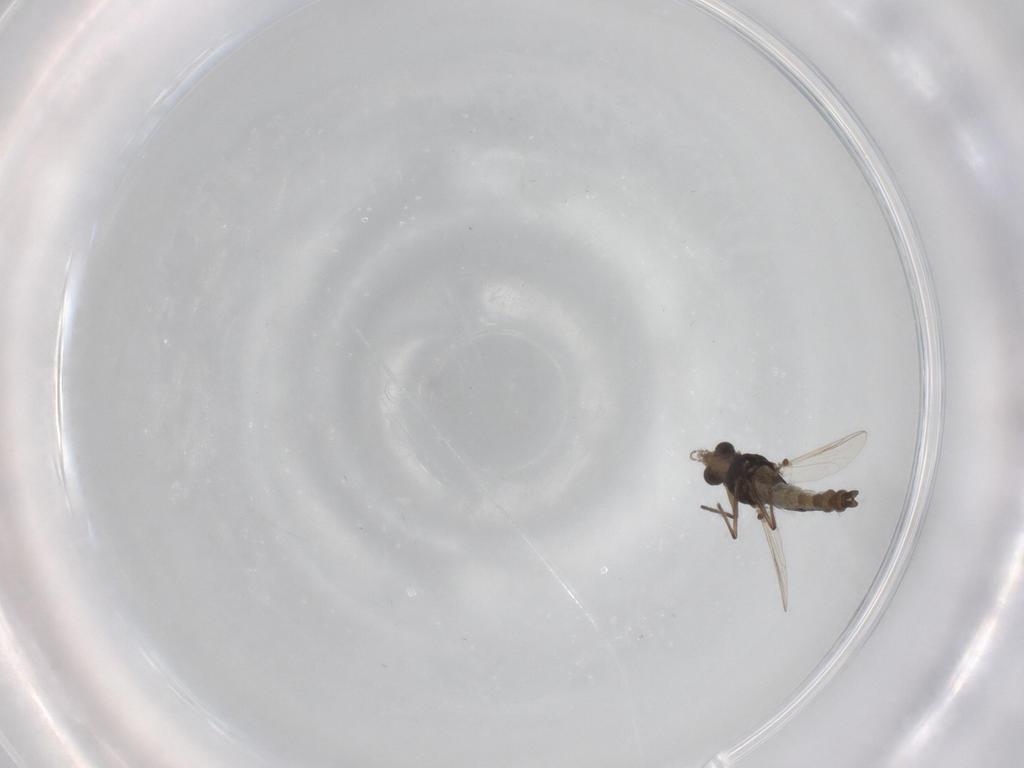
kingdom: Animalia
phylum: Arthropoda
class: Insecta
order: Diptera
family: Chironomidae
